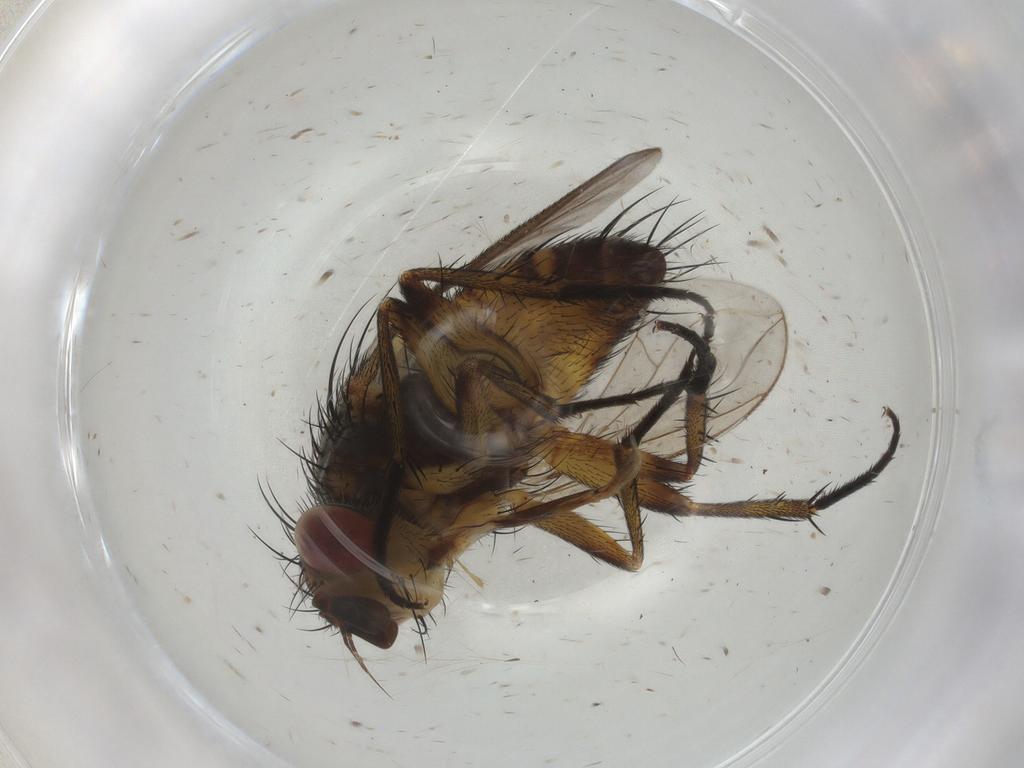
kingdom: Animalia
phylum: Arthropoda
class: Insecta
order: Diptera
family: Tachinidae
